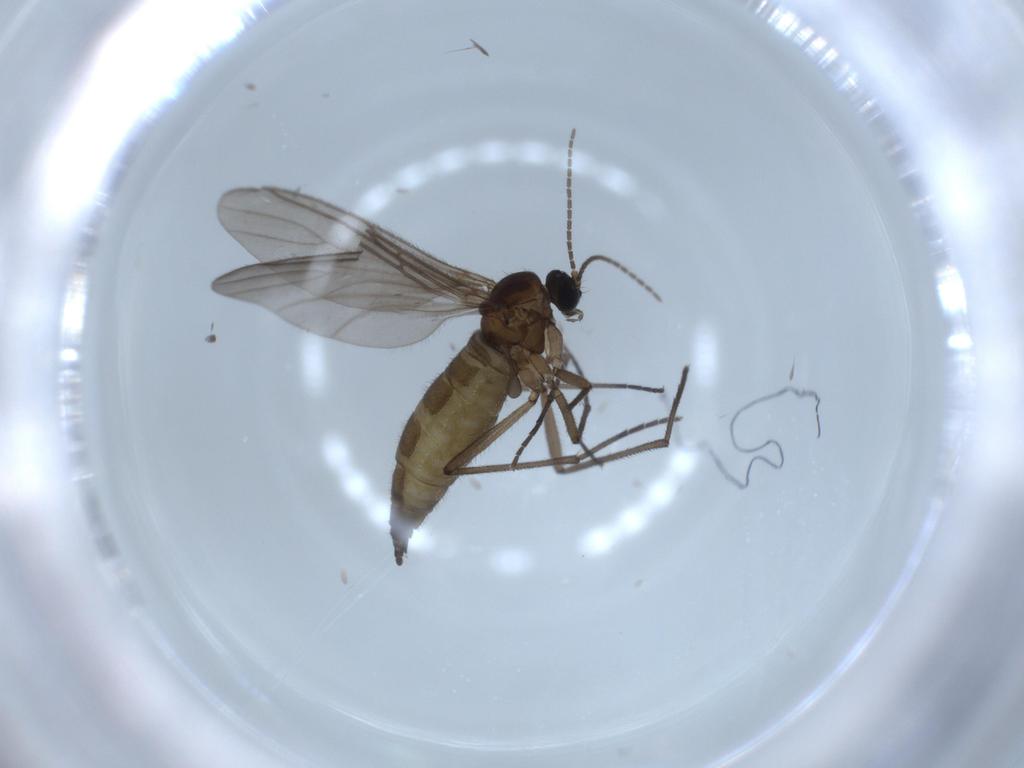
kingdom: Animalia
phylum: Arthropoda
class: Insecta
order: Diptera
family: Sciaridae
